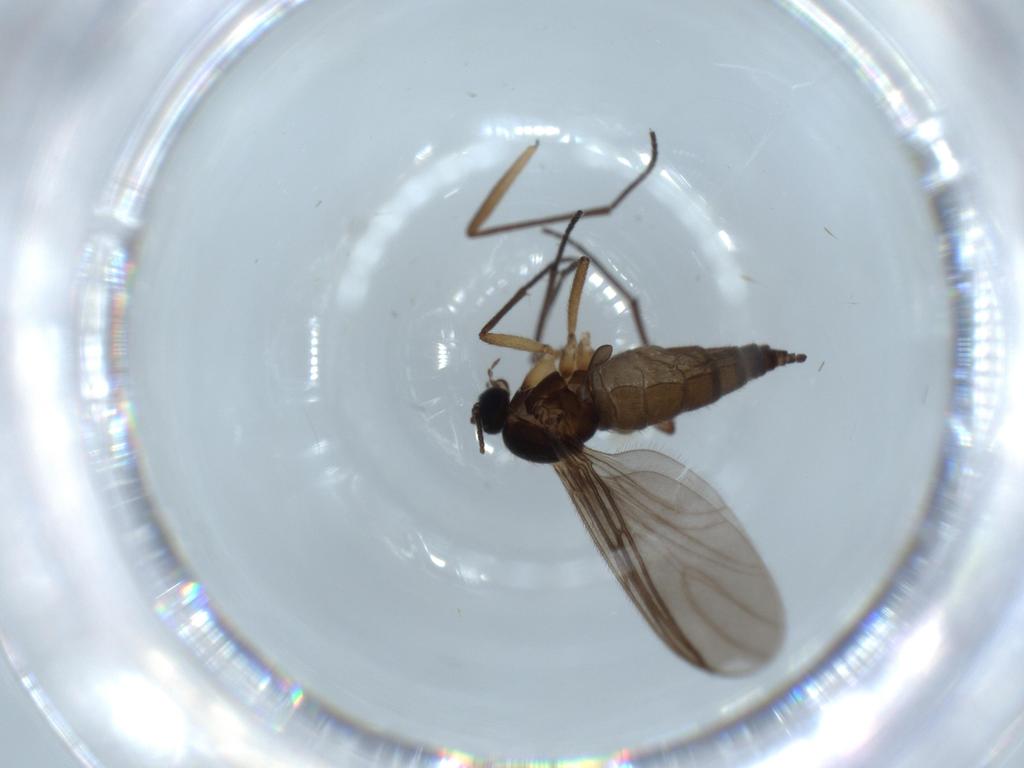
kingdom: Animalia
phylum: Arthropoda
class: Insecta
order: Diptera
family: Sciaridae
